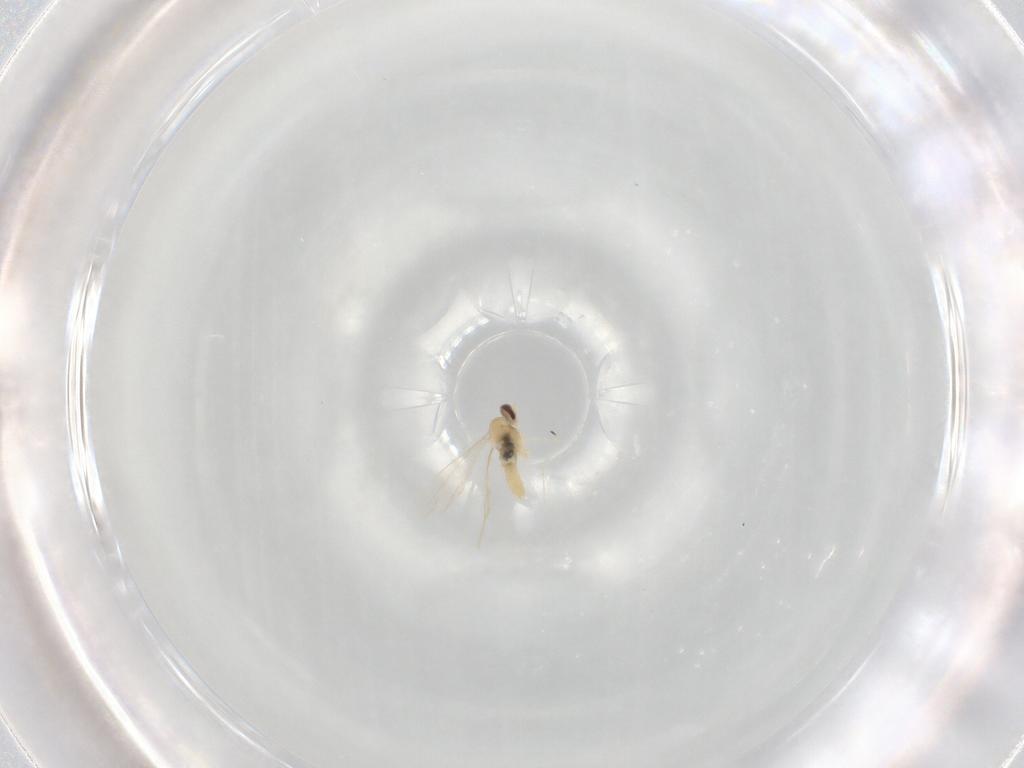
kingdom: Animalia
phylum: Arthropoda
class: Insecta
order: Diptera
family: Cecidomyiidae
